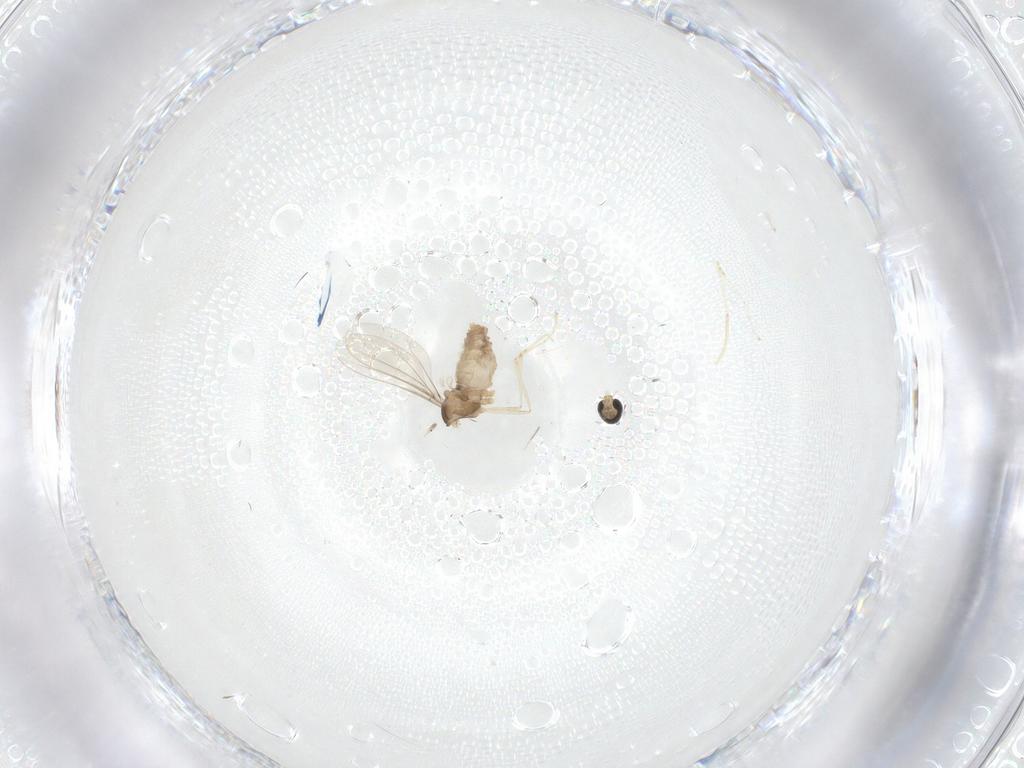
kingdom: Animalia
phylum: Arthropoda
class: Insecta
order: Diptera
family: Cecidomyiidae
